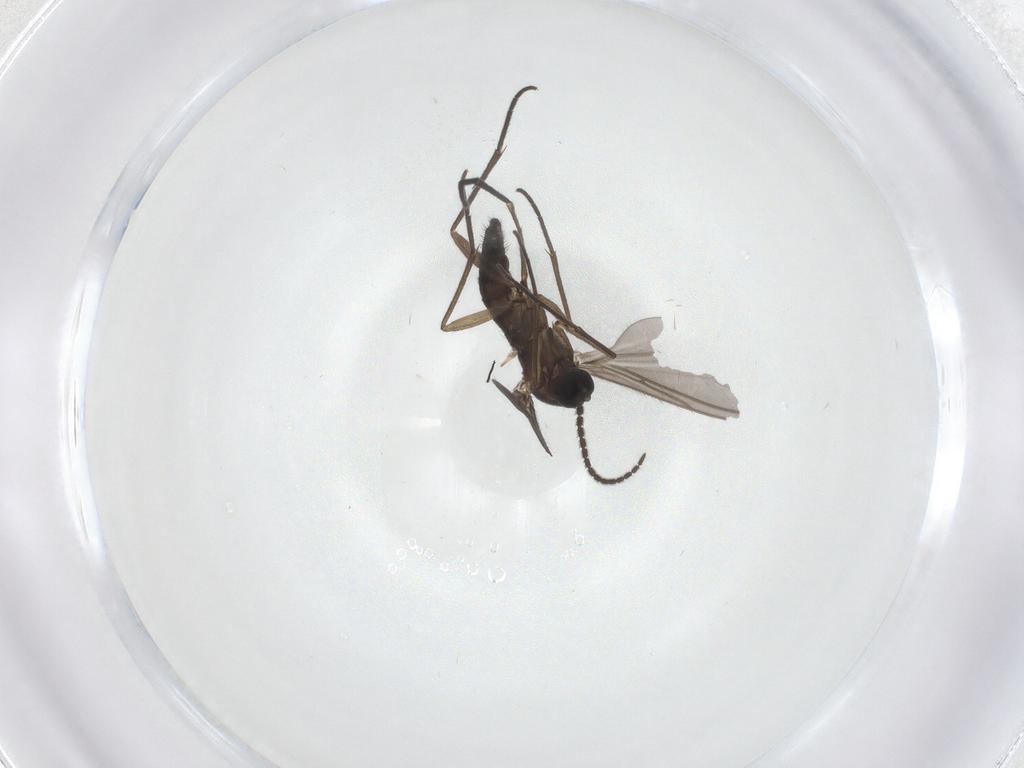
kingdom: Animalia
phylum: Arthropoda
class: Insecta
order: Diptera
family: Sciaridae
